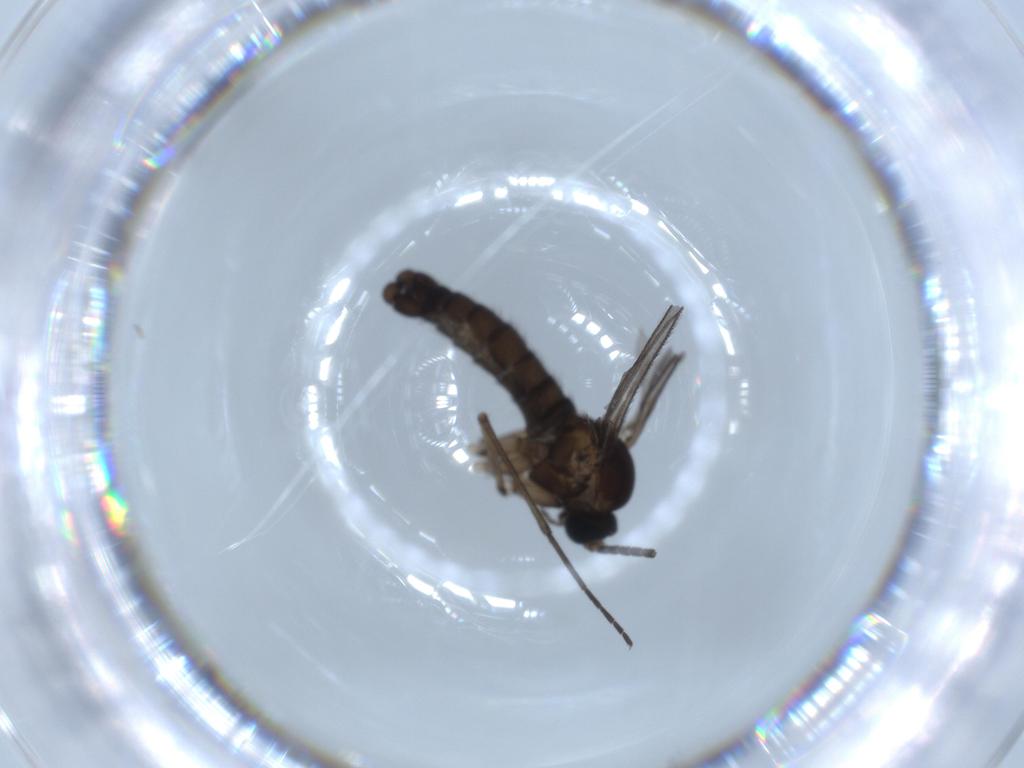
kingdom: Animalia
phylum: Arthropoda
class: Insecta
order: Diptera
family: Sciaridae
